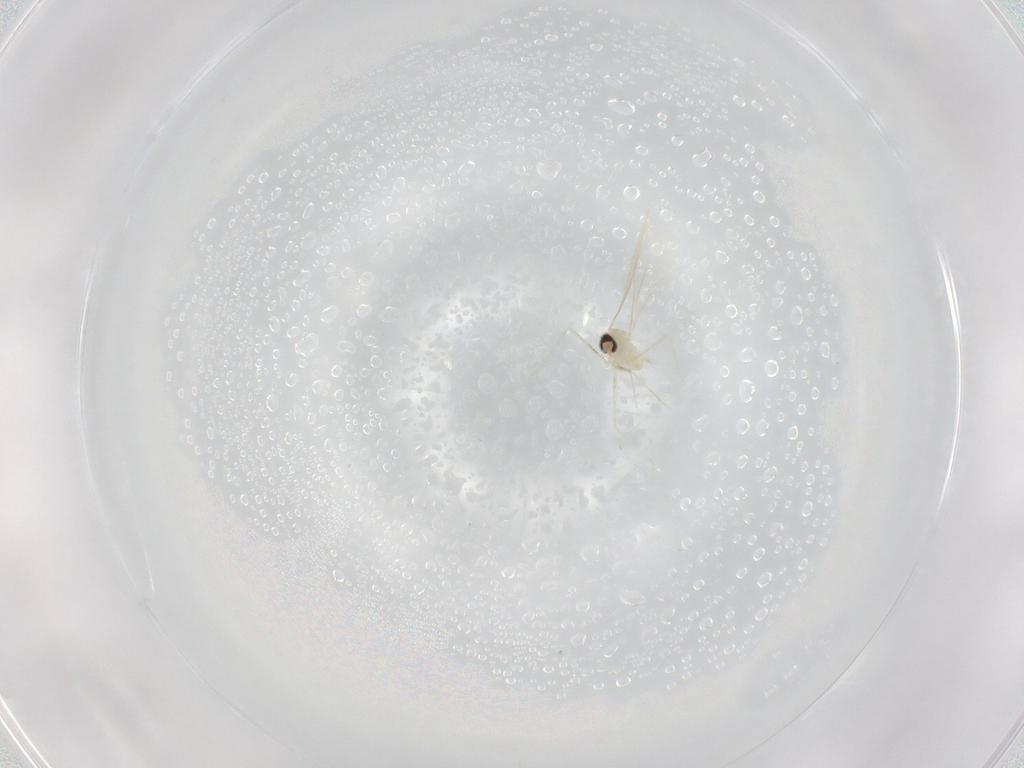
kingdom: Animalia
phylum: Arthropoda
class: Insecta
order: Diptera
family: Cecidomyiidae
